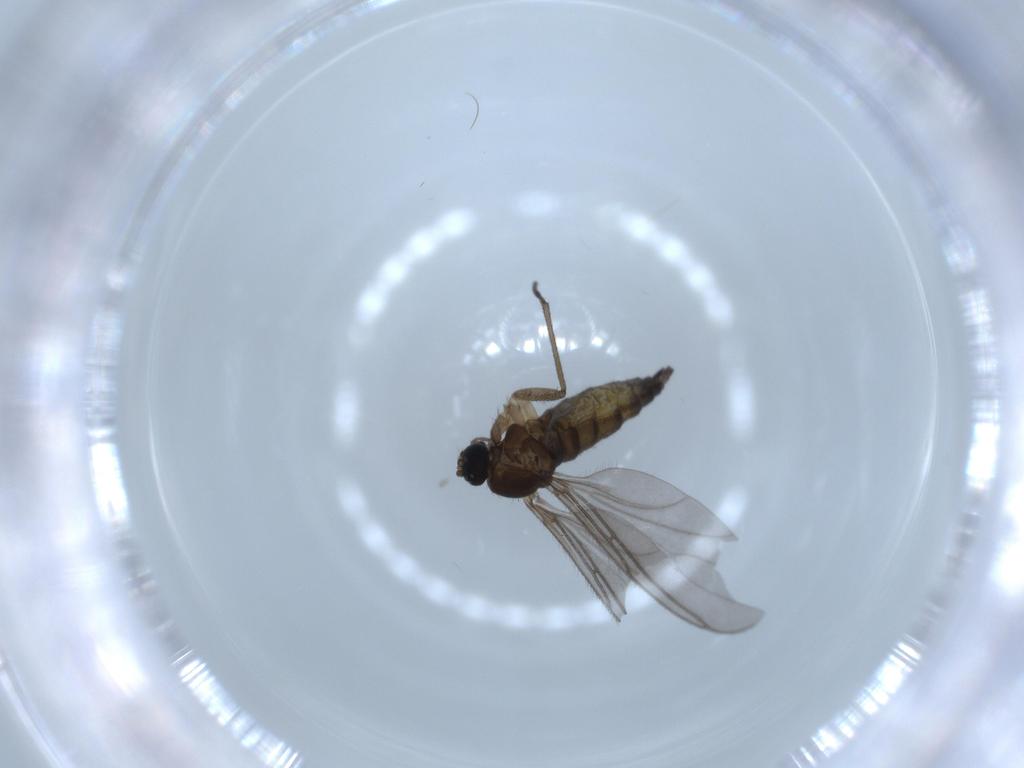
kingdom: Animalia
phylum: Arthropoda
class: Insecta
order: Diptera
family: Sciaridae
